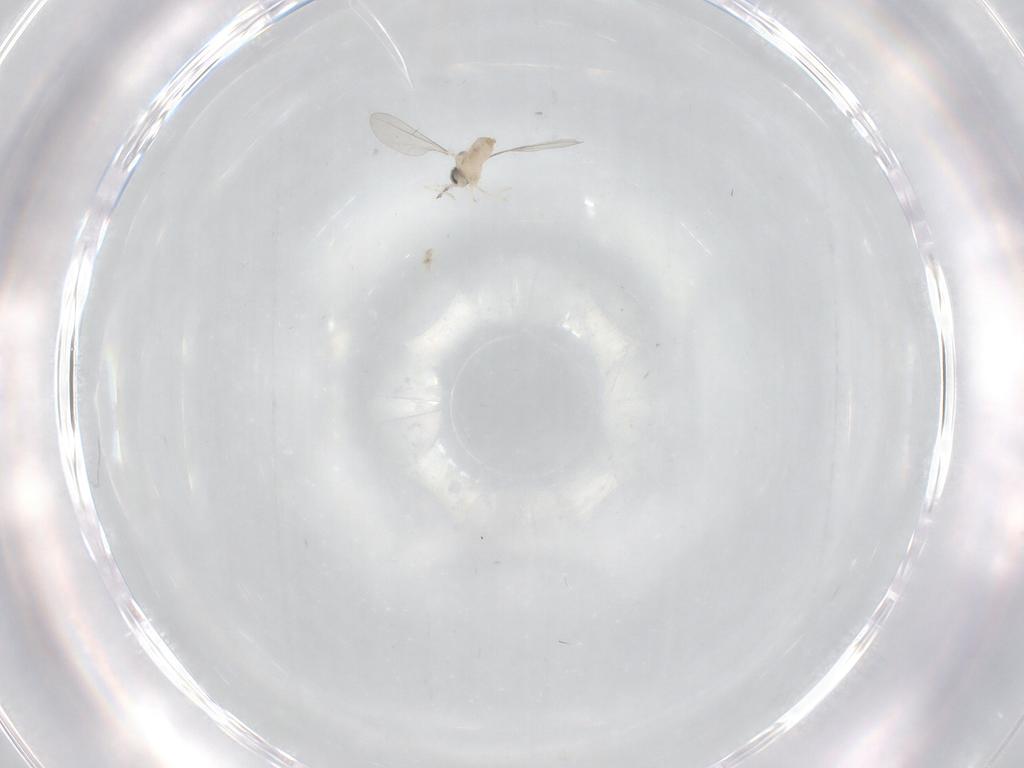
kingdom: Animalia
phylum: Arthropoda
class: Insecta
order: Diptera
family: Cecidomyiidae
